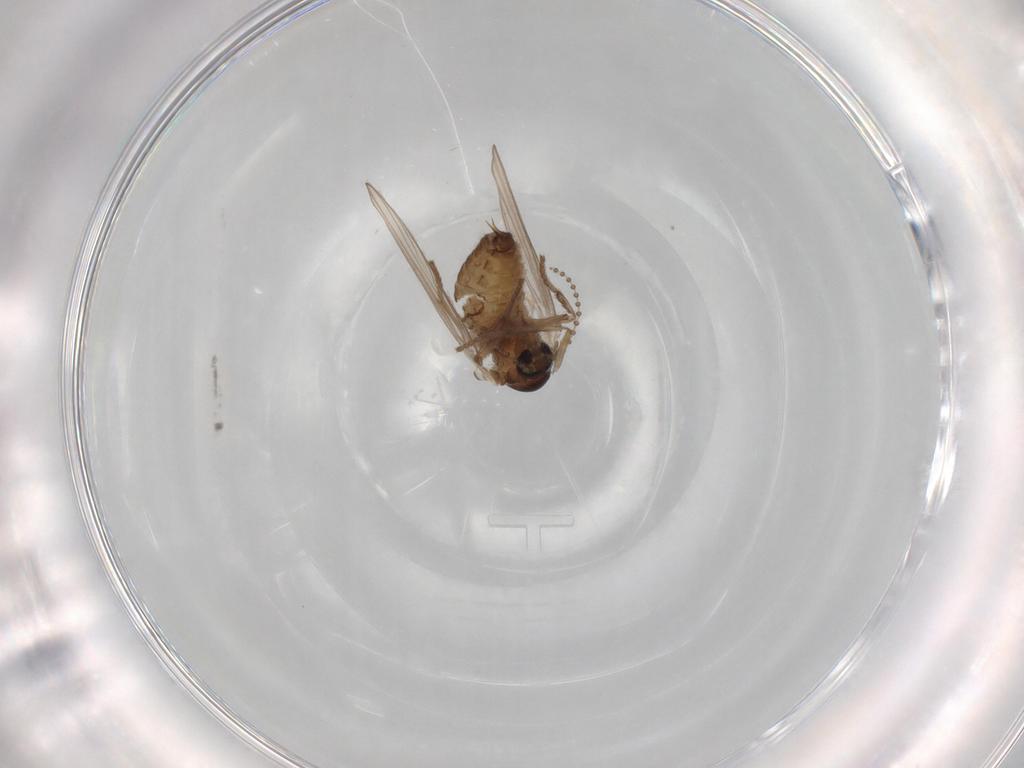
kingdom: Animalia
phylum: Arthropoda
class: Insecta
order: Diptera
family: Psychodidae
